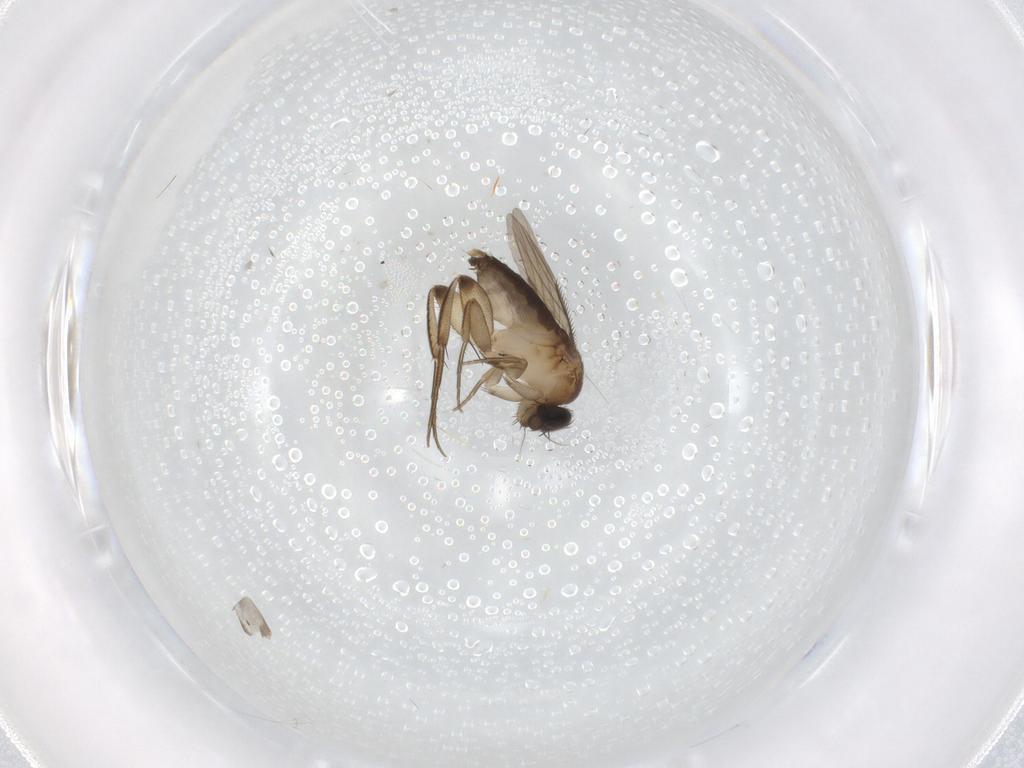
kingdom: Animalia
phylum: Arthropoda
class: Insecta
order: Diptera
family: Phoridae
